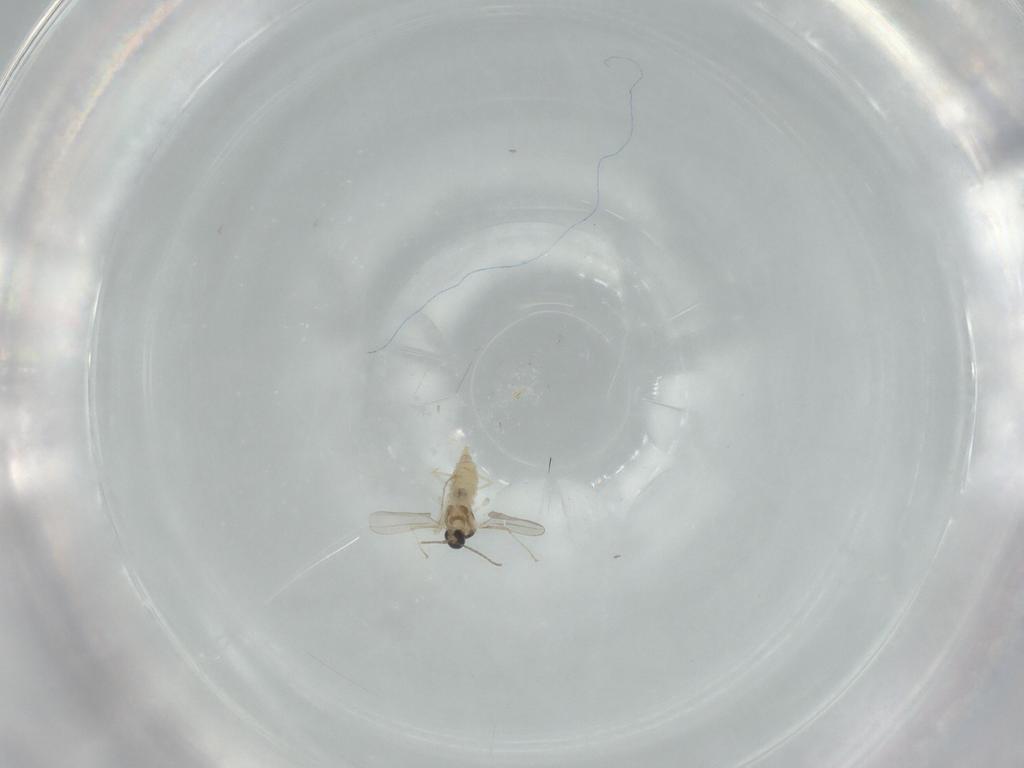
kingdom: Animalia
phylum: Arthropoda
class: Insecta
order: Diptera
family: Cecidomyiidae
